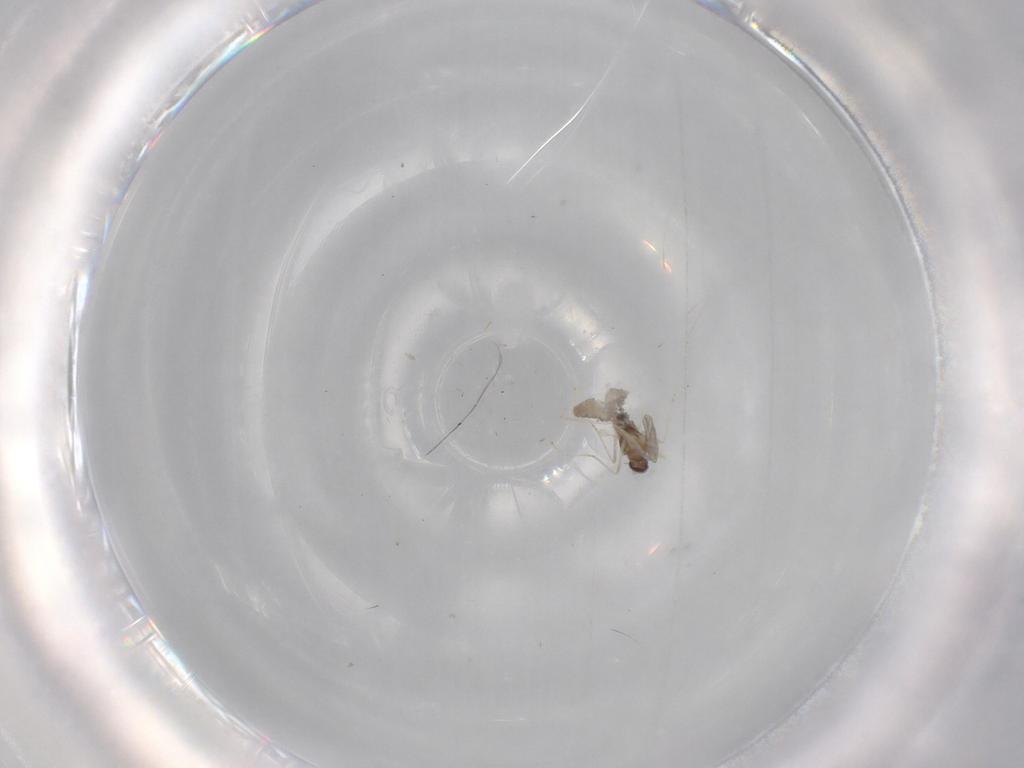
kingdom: Animalia
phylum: Arthropoda
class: Insecta
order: Diptera
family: Cecidomyiidae
